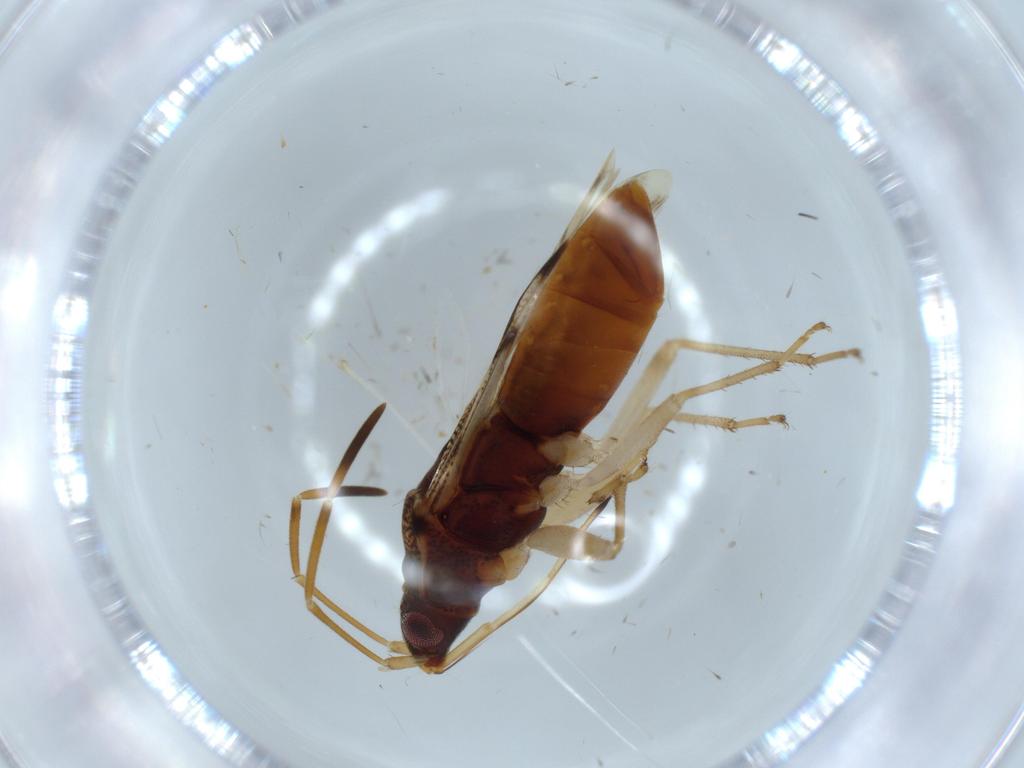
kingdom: Animalia
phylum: Arthropoda
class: Insecta
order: Hemiptera
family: Rhyparochromidae
